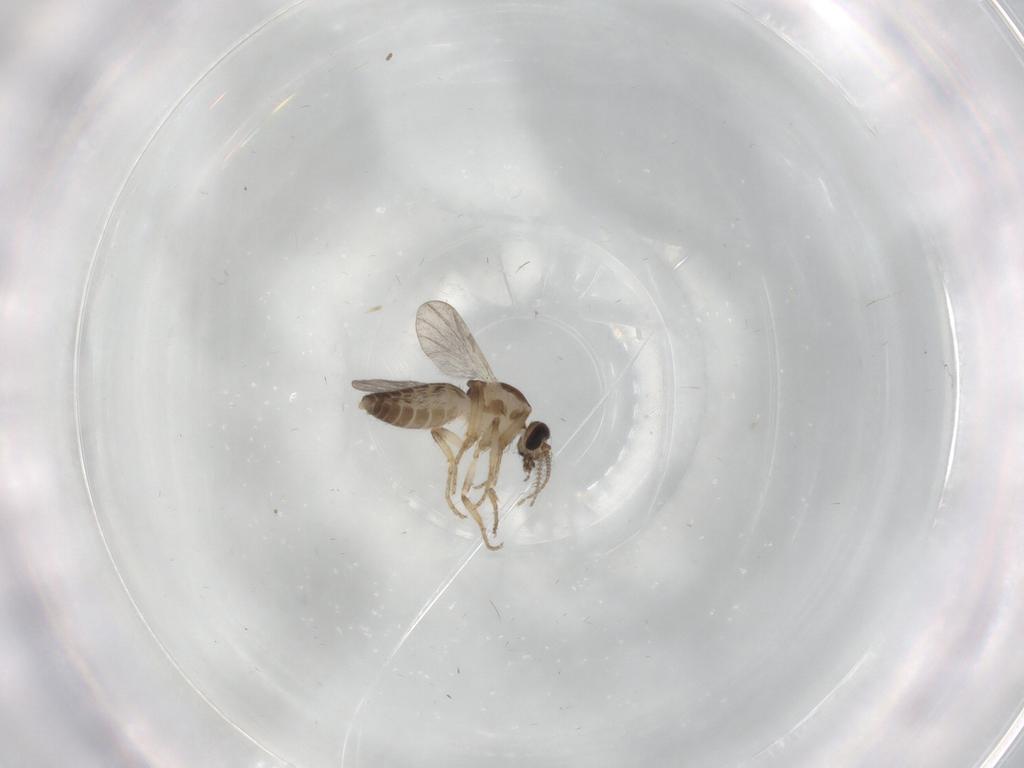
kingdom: Animalia
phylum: Arthropoda
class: Insecta
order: Diptera
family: Ceratopogonidae
